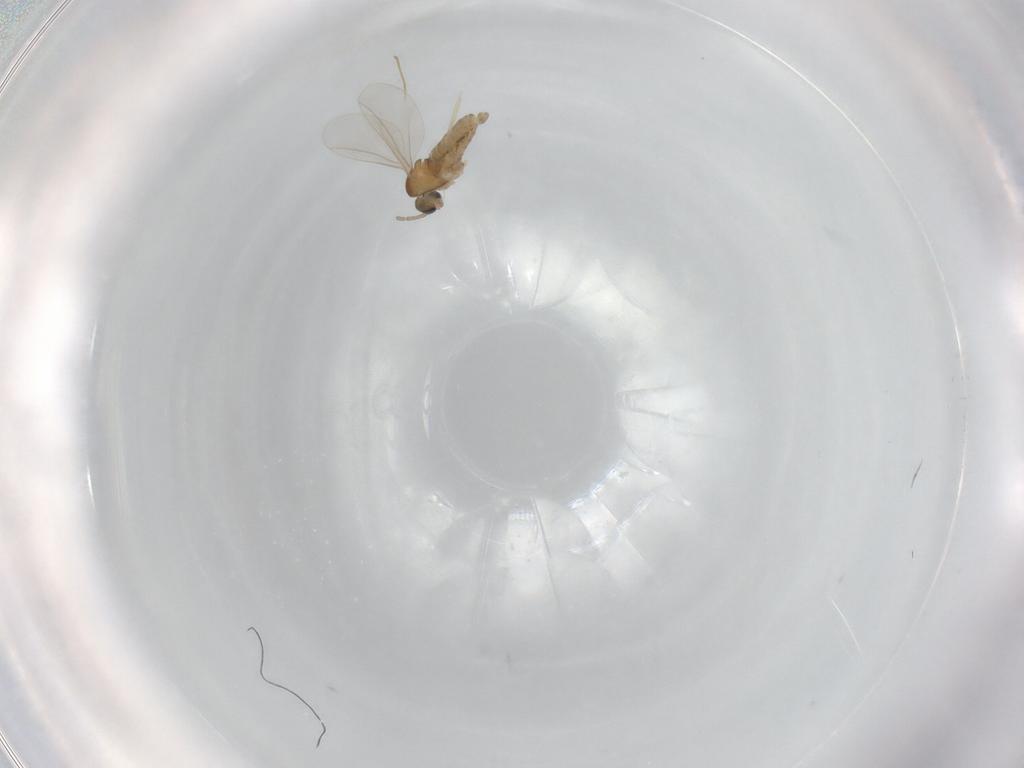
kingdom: Animalia
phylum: Arthropoda
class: Insecta
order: Diptera
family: Cecidomyiidae
